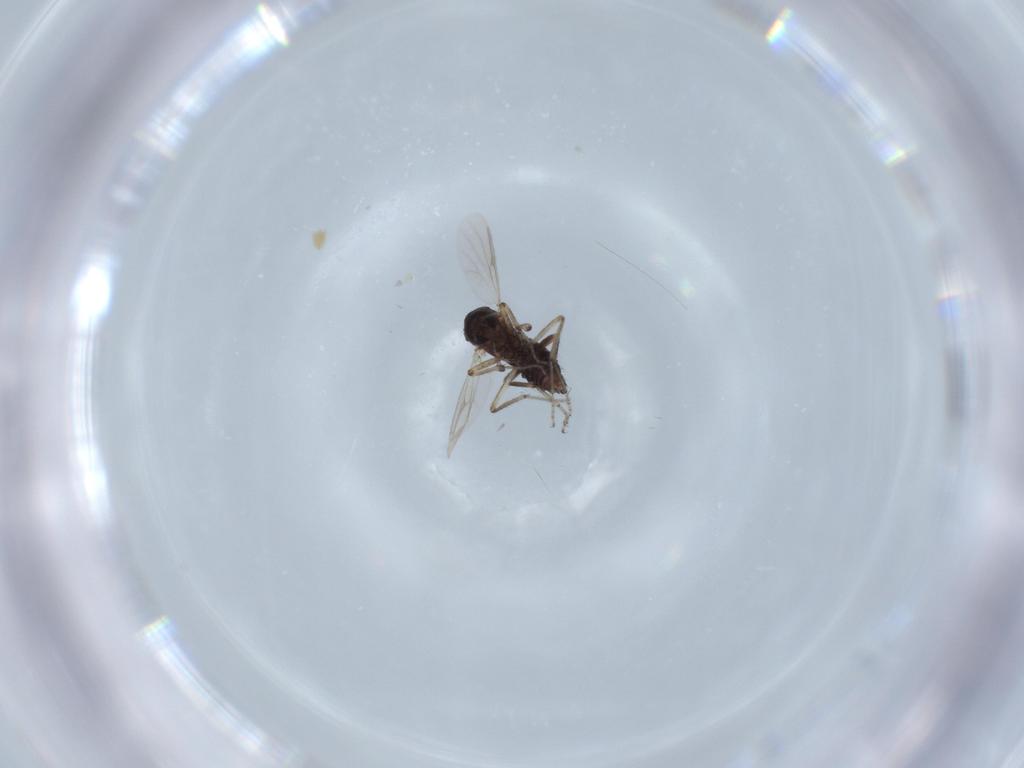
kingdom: Animalia
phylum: Arthropoda
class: Insecta
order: Diptera
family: Ceratopogonidae
